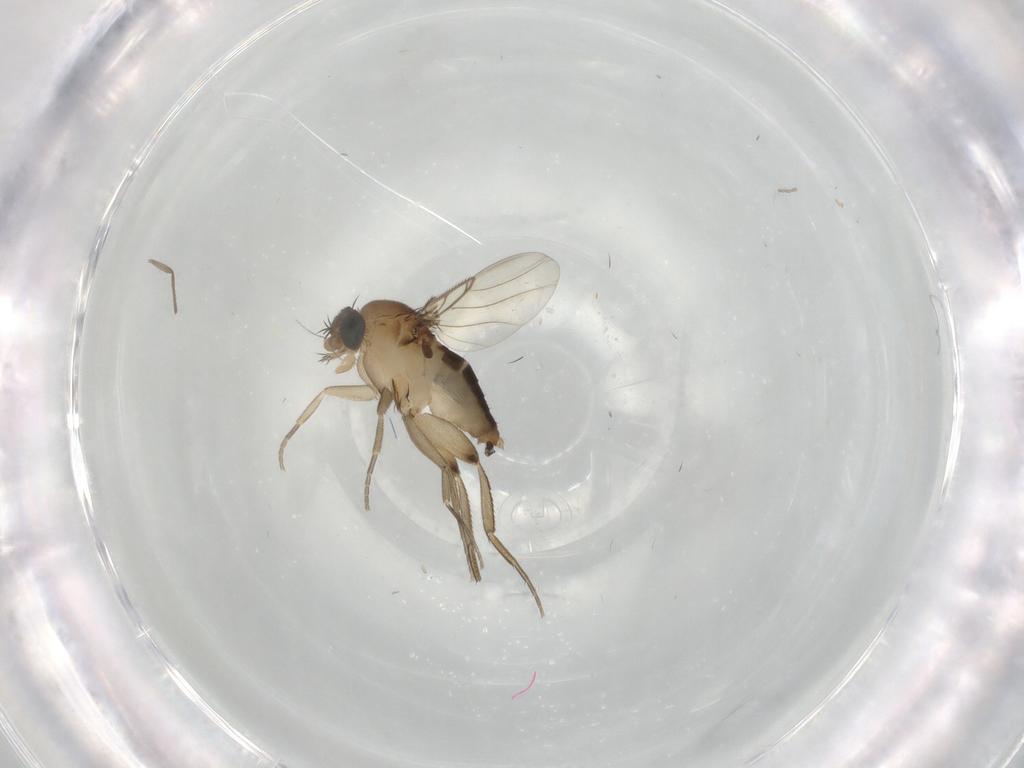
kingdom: Animalia
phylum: Arthropoda
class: Insecta
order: Diptera
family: Phoridae
